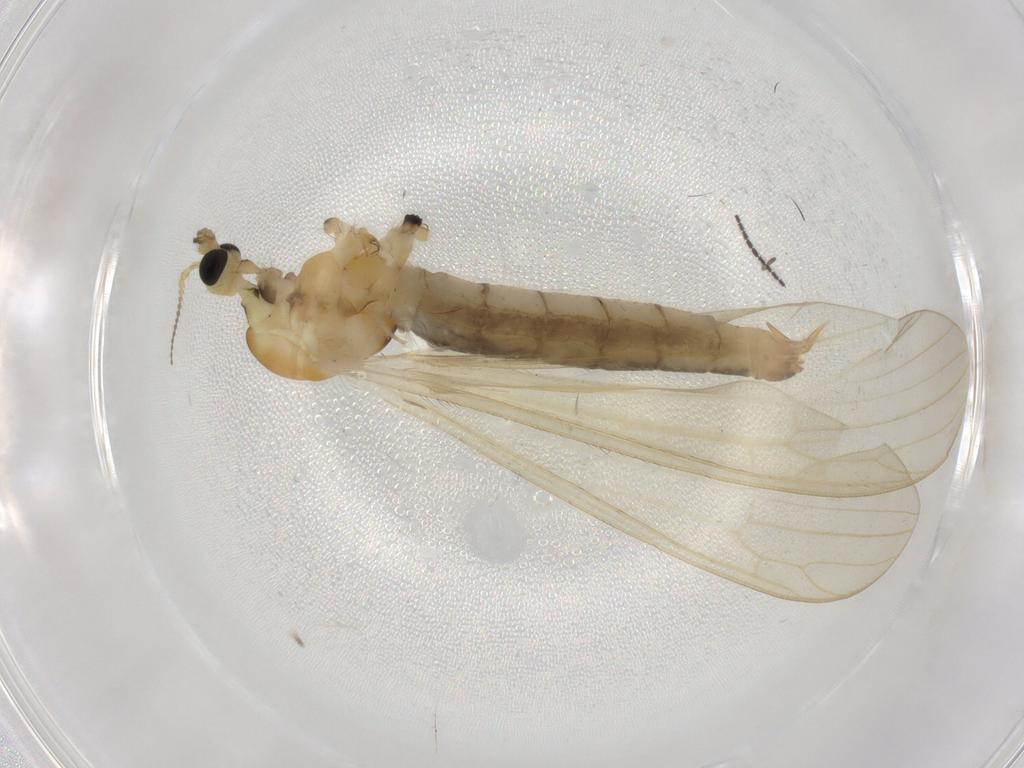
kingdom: Animalia
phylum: Arthropoda
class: Insecta
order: Diptera
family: Limoniidae
